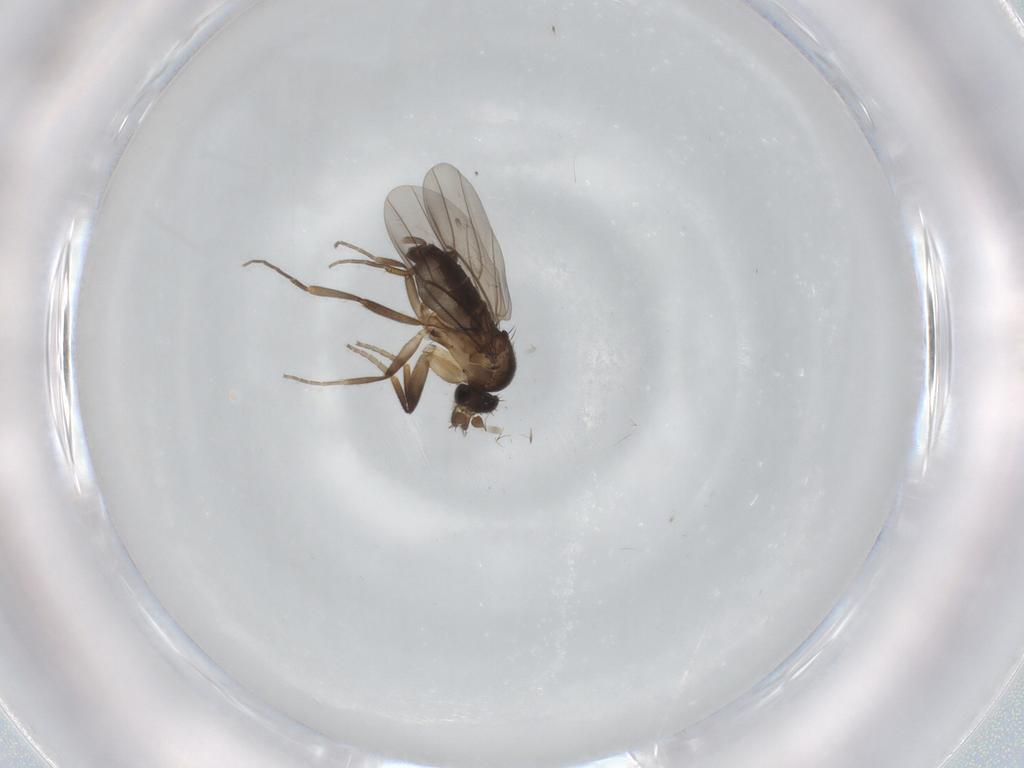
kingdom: Animalia
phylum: Arthropoda
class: Insecta
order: Diptera
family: Phoridae
